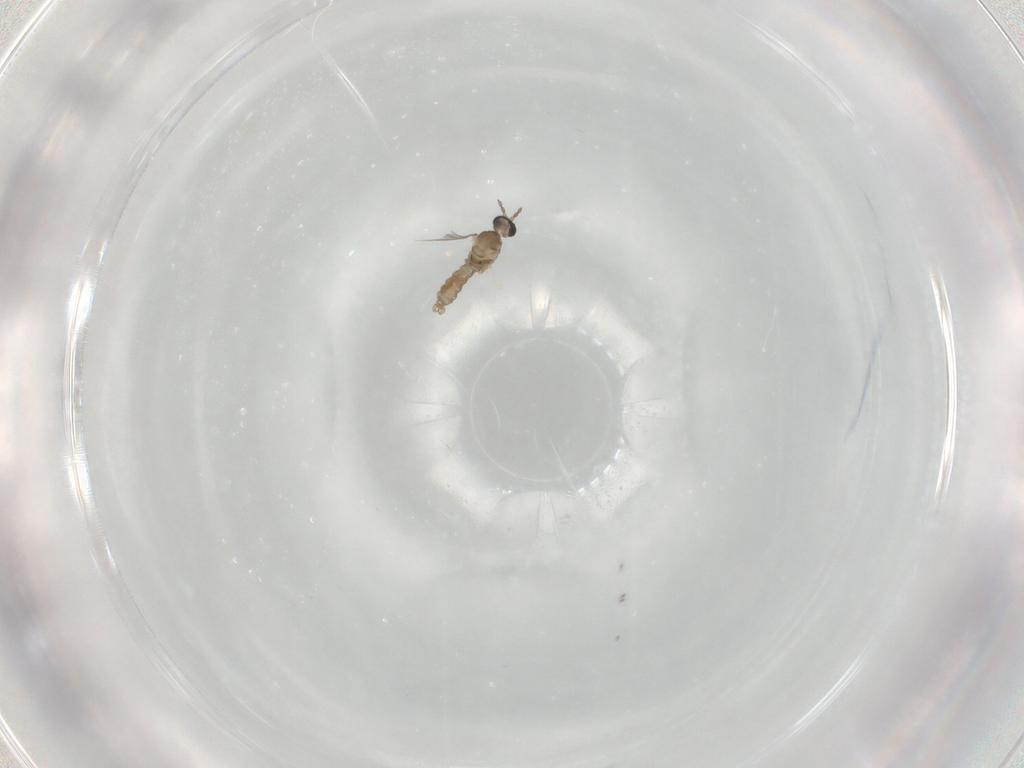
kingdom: Animalia
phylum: Arthropoda
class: Insecta
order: Diptera
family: Cecidomyiidae
